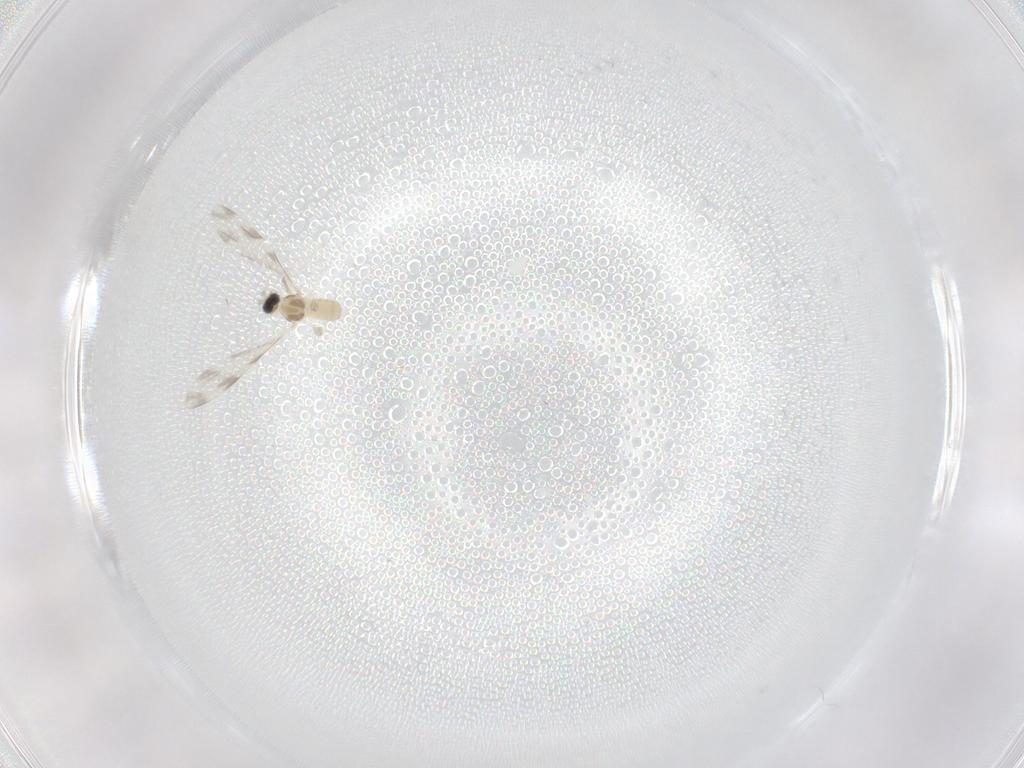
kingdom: Animalia
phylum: Arthropoda
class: Insecta
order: Diptera
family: Cecidomyiidae
